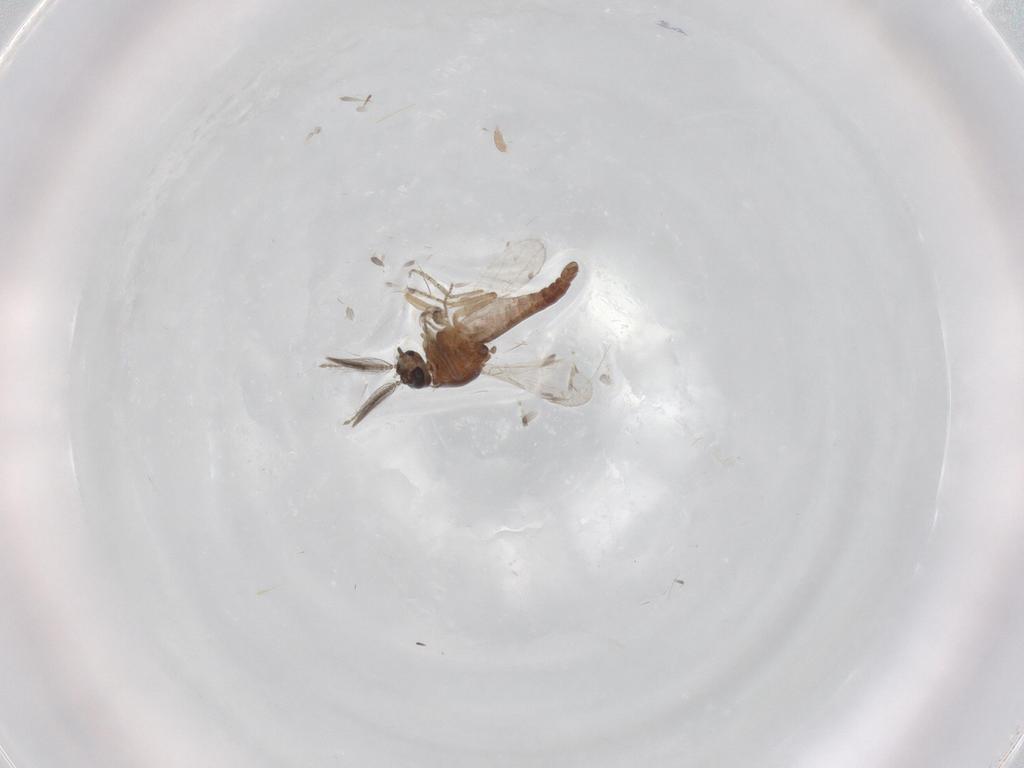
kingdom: Animalia
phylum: Arthropoda
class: Insecta
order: Diptera
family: Ceratopogonidae
